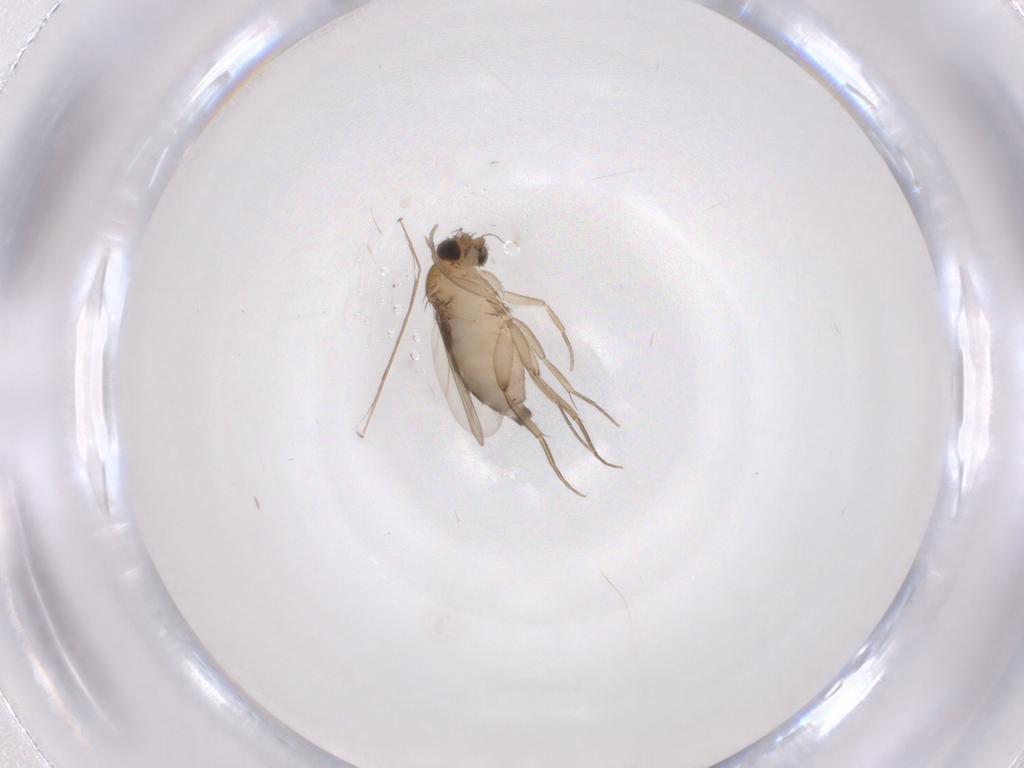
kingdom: Animalia
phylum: Arthropoda
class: Insecta
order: Diptera
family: Phoridae
